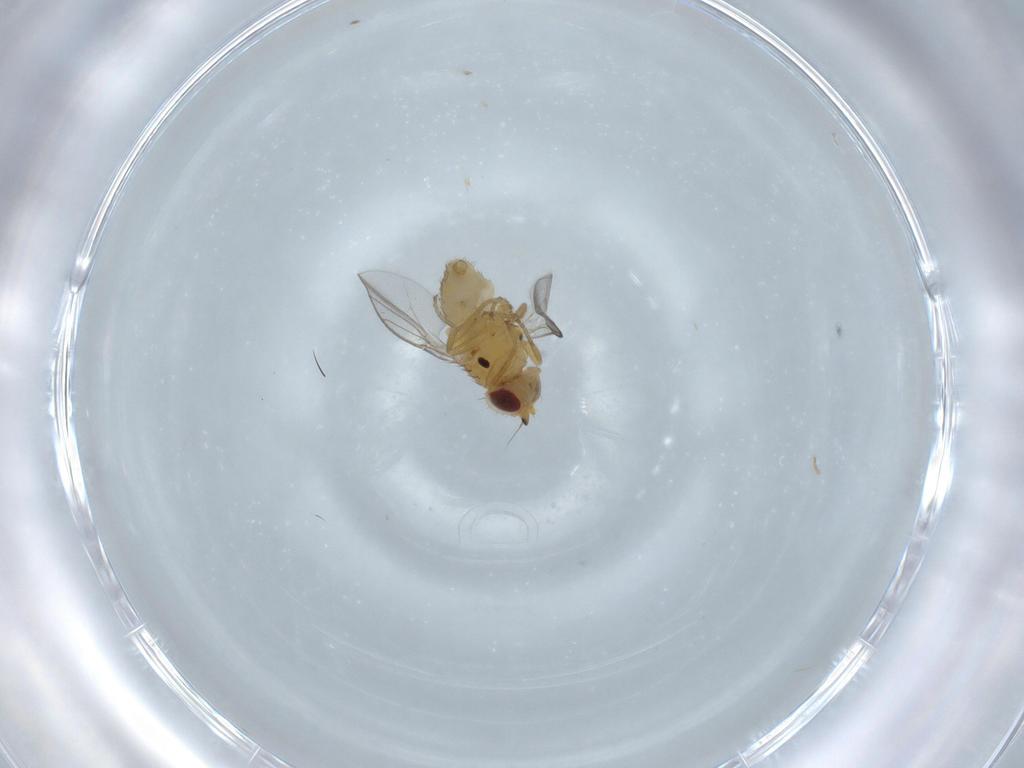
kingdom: Animalia
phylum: Arthropoda
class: Insecta
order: Diptera
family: Chloropidae
